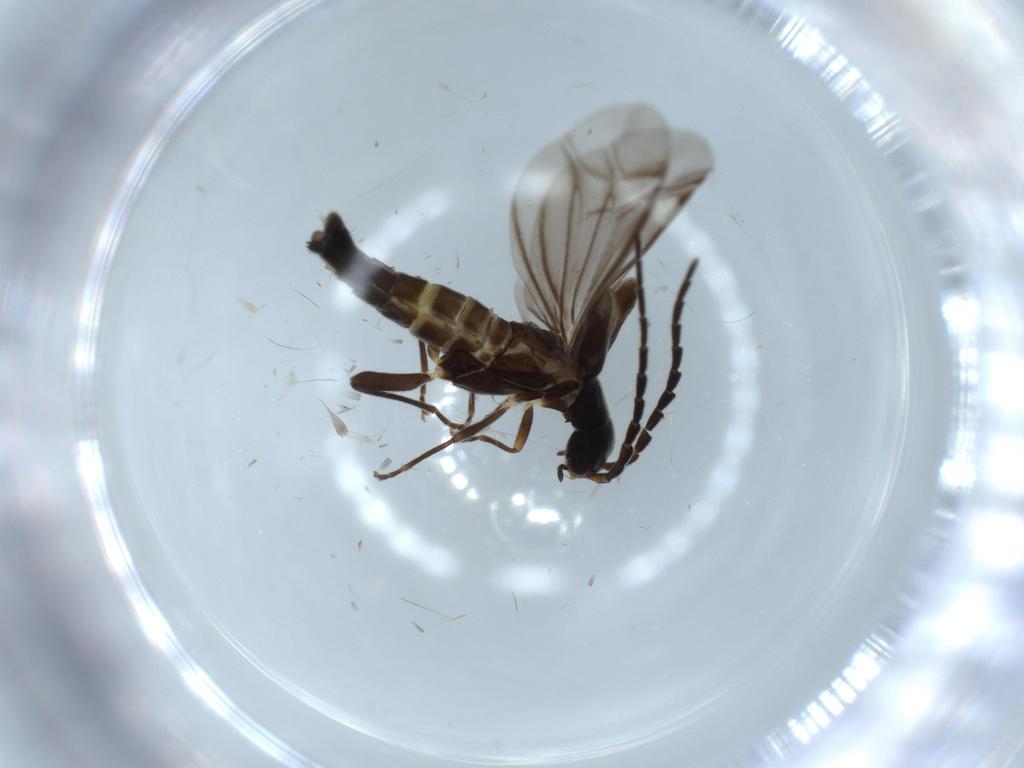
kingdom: Animalia
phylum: Arthropoda
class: Insecta
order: Coleoptera
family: Cantharidae
